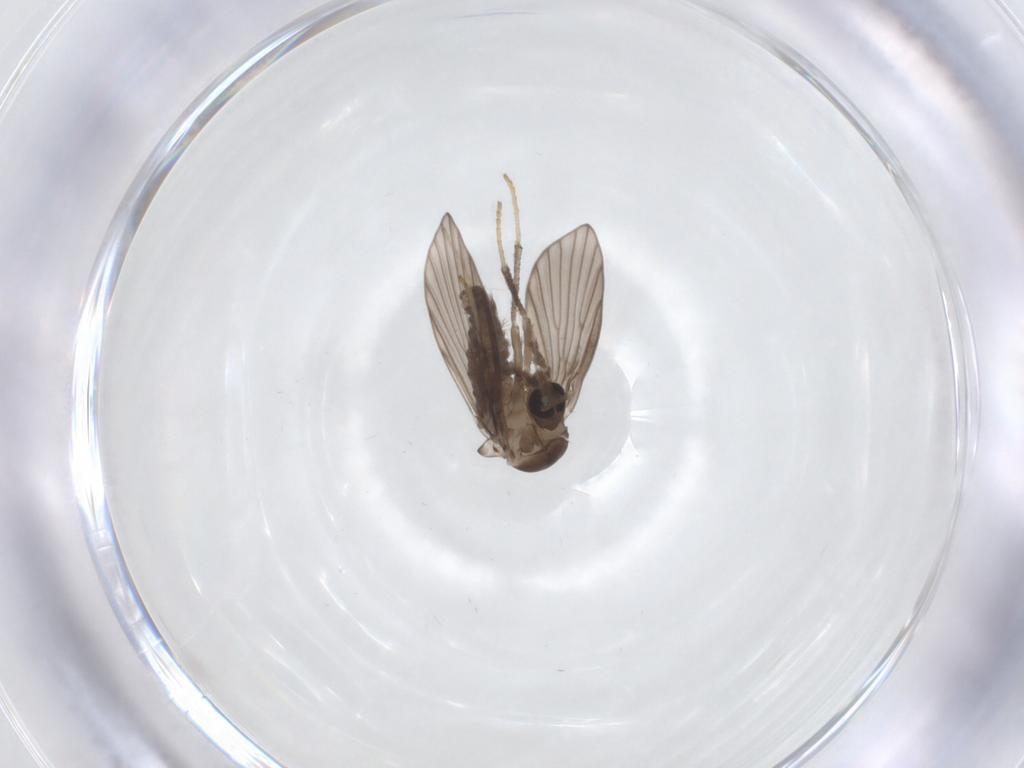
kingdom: Animalia
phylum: Arthropoda
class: Insecta
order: Diptera
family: Psychodidae
